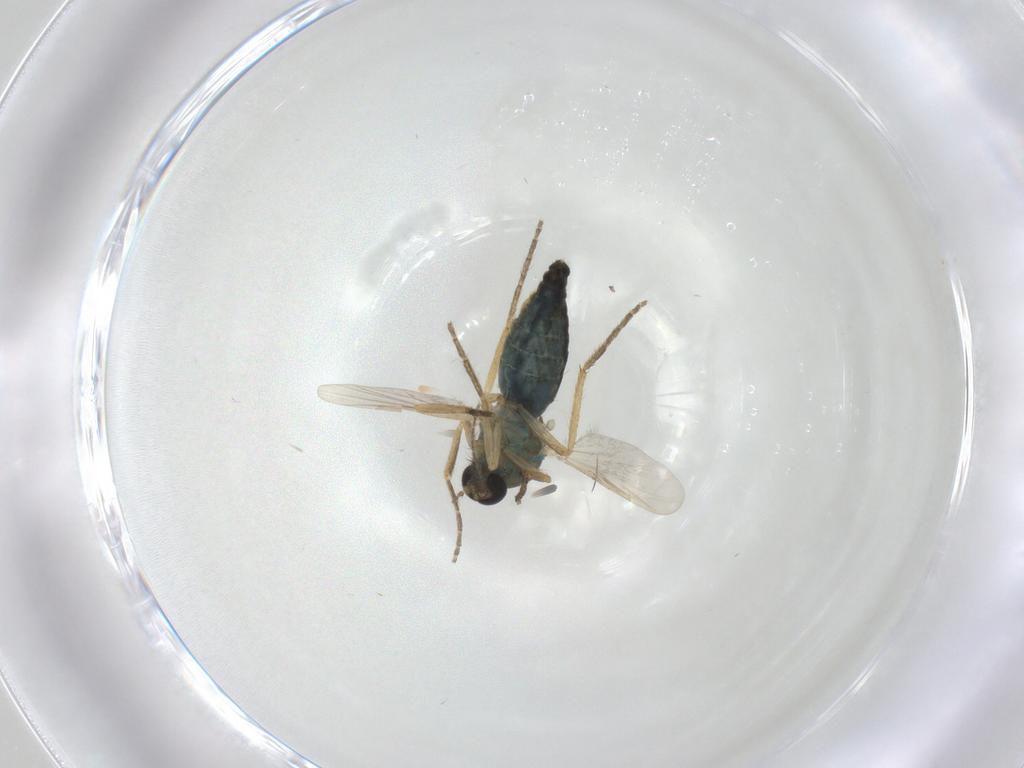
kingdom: Animalia
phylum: Arthropoda
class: Insecta
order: Diptera
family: Ceratopogonidae
